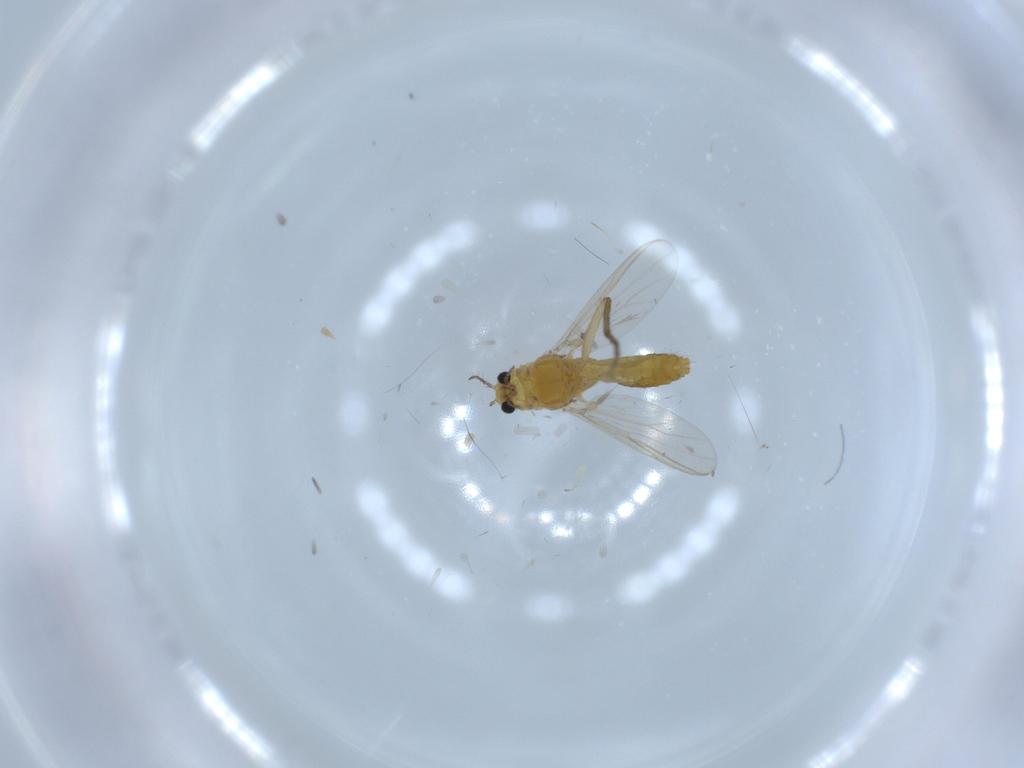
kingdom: Animalia
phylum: Arthropoda
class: Insecta
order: Diptera
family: Chironomidae
